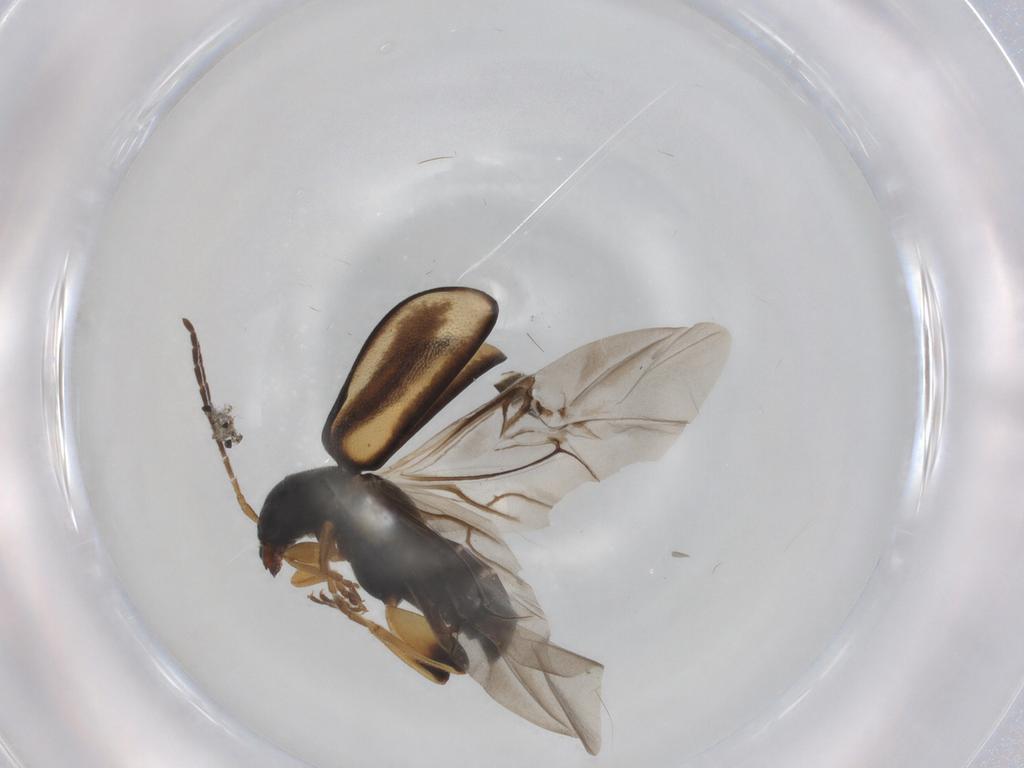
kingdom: Animalia
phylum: Arthropoda
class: Insecta
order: Coleoptera
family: Chrysomelidae
